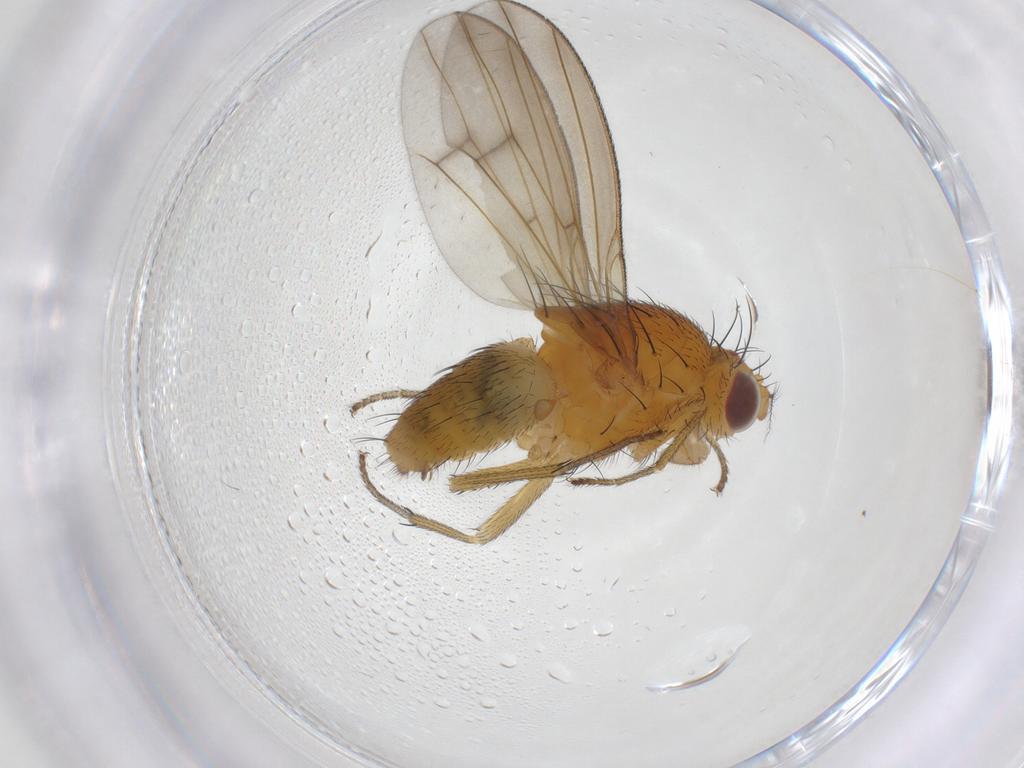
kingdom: Animalia
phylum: Arthropoda
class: Insecta
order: Diptera
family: Lauxaniidae
